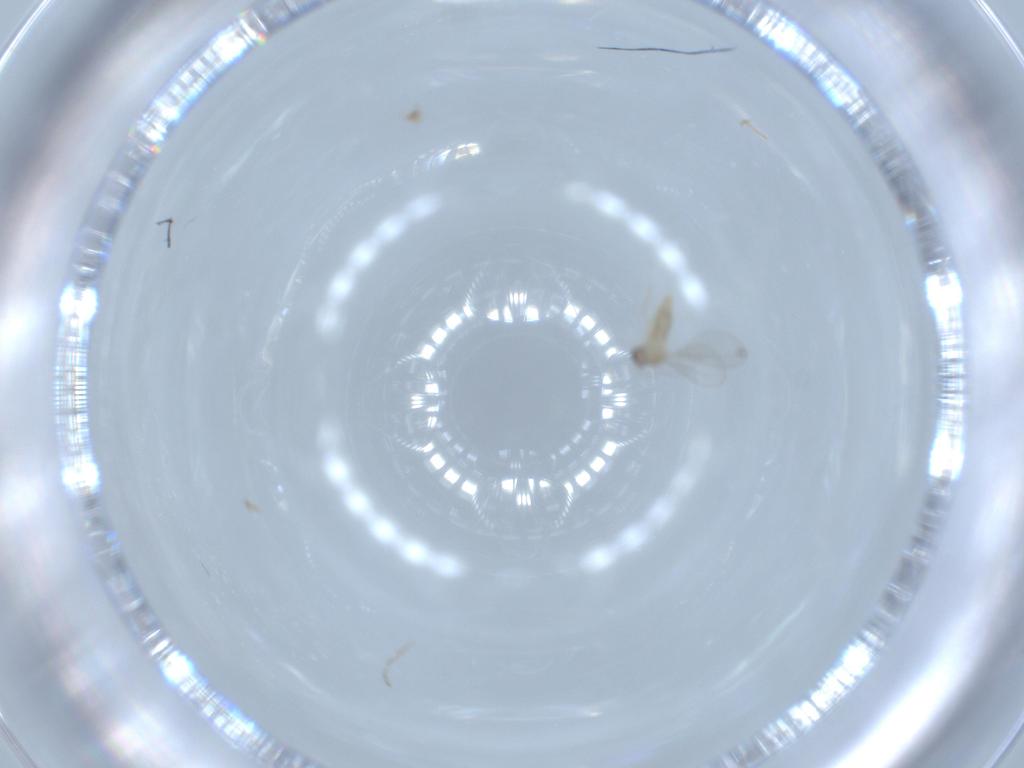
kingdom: Animalia
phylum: Arthropoda
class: Insecta
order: Diptera
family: Cecidomyiidae
